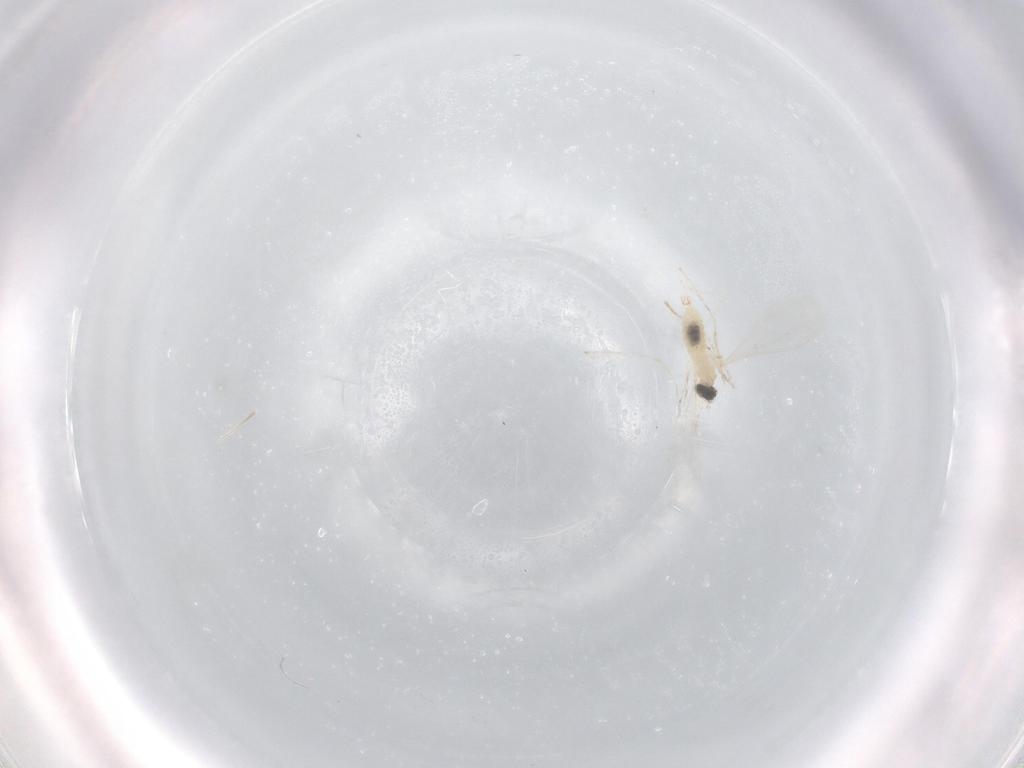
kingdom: Animalia
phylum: Arthropoda
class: Insecta
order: Diptera
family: Cecidomyiidae
